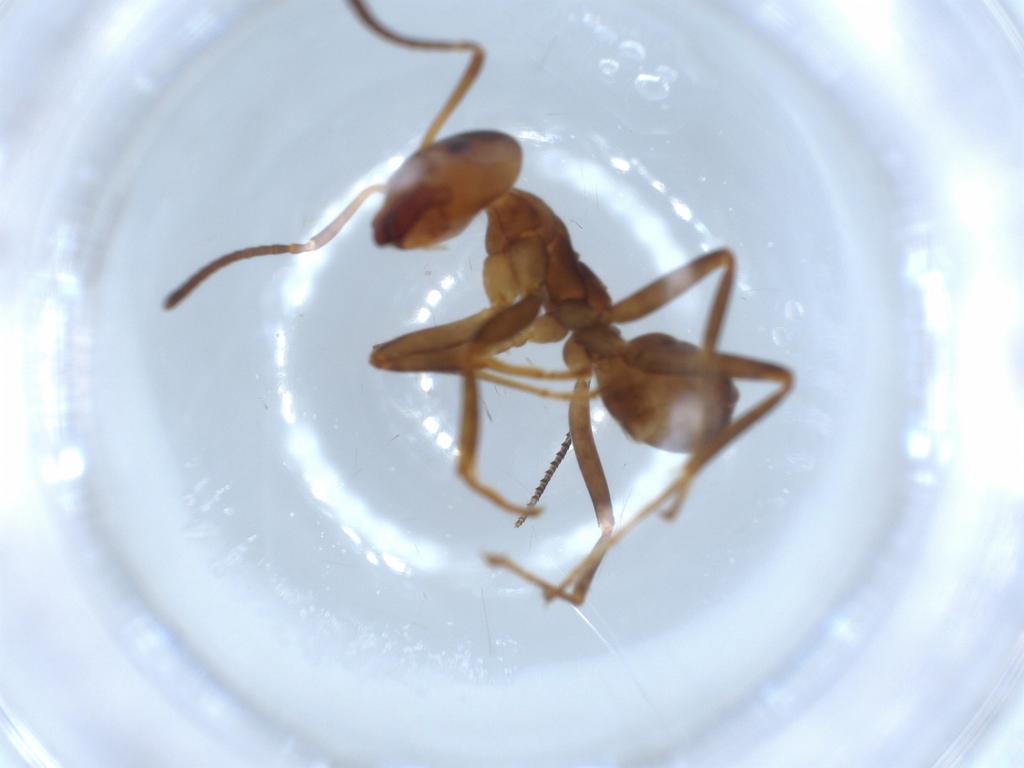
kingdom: Animalia
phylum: Arthropoda
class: Insecta
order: Hymenoptera
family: Formicidae
